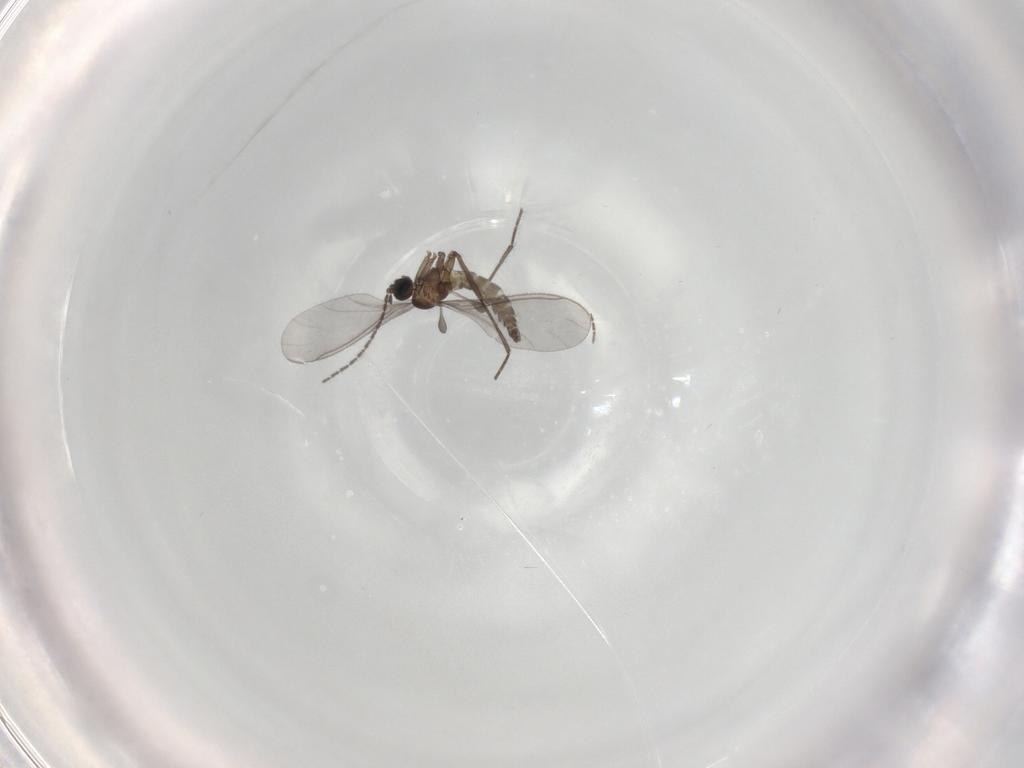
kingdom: Animalia
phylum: Arthropoda
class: Insecta
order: Diptera
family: Sciaridae
